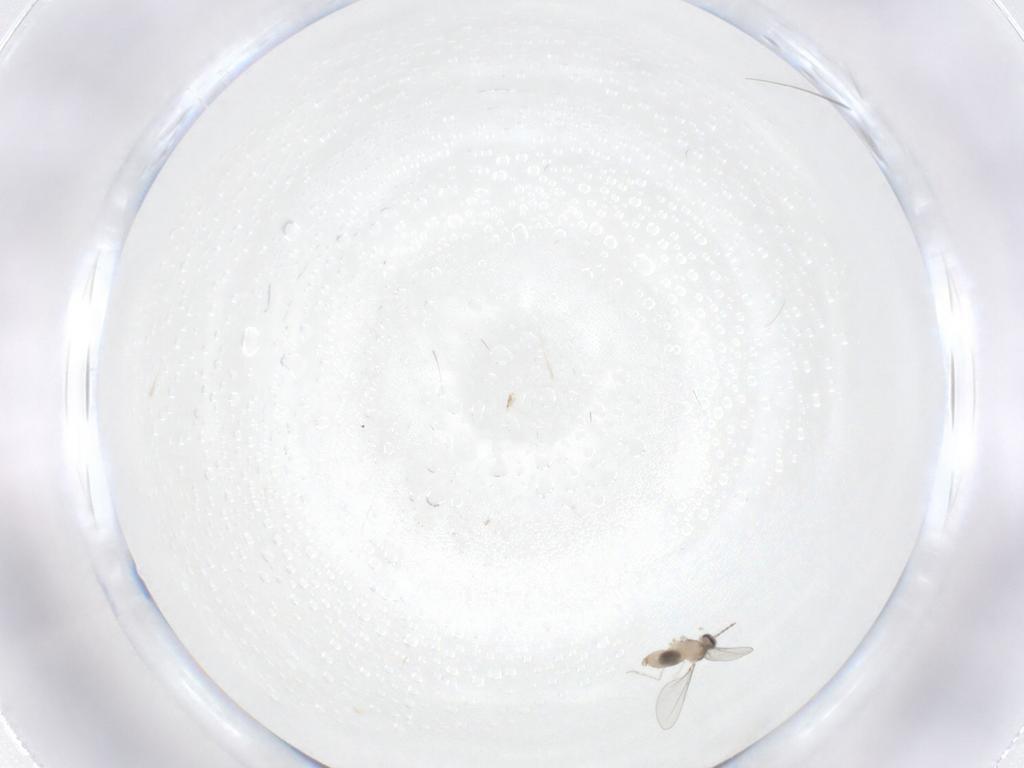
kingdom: Animalia
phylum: Arthropoda
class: Insecta
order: Diptera
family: Cecidomyiidae
